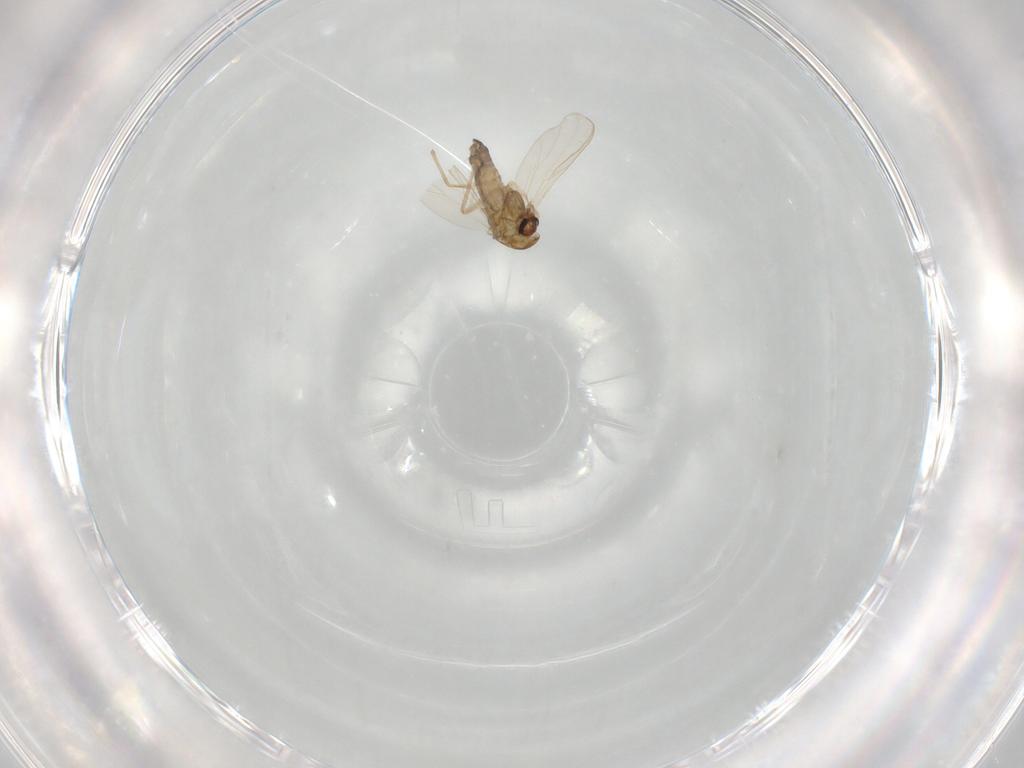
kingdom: Animalia
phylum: Arthropoda
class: Insecta
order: Diptera
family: Chironomidae
